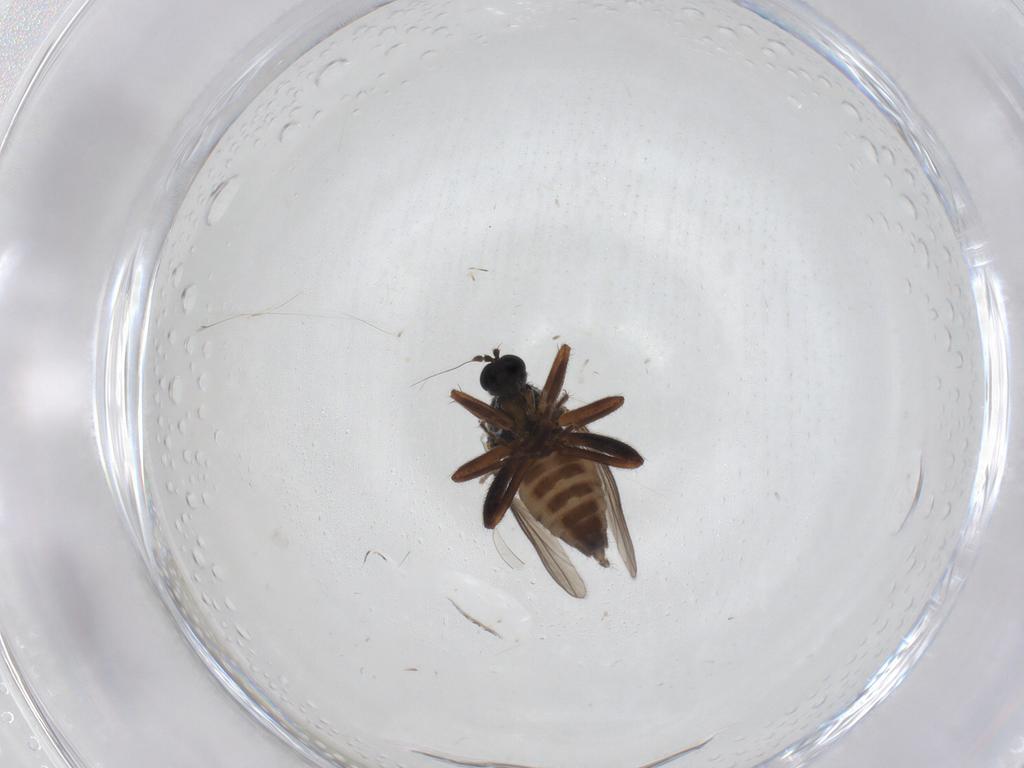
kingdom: Animalia
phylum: Arthropoda
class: Insecta
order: Diptera
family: Hybotidae
